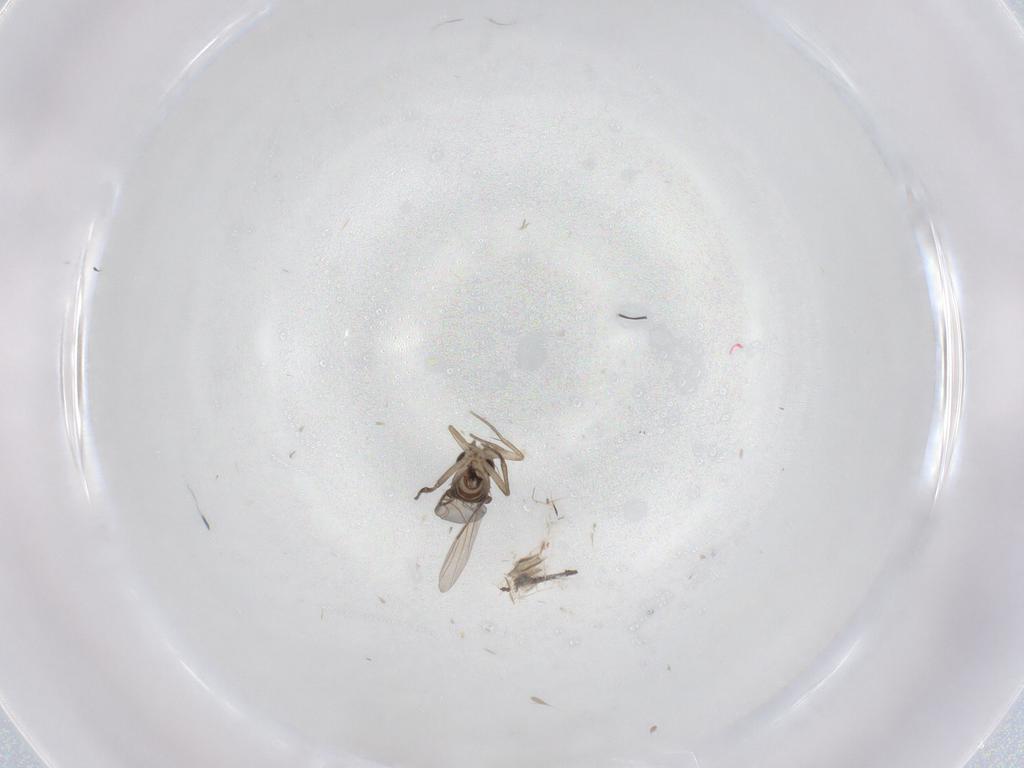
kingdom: Animalia
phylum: Arthropoda
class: Insecta
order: Diptera
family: Phoridae
